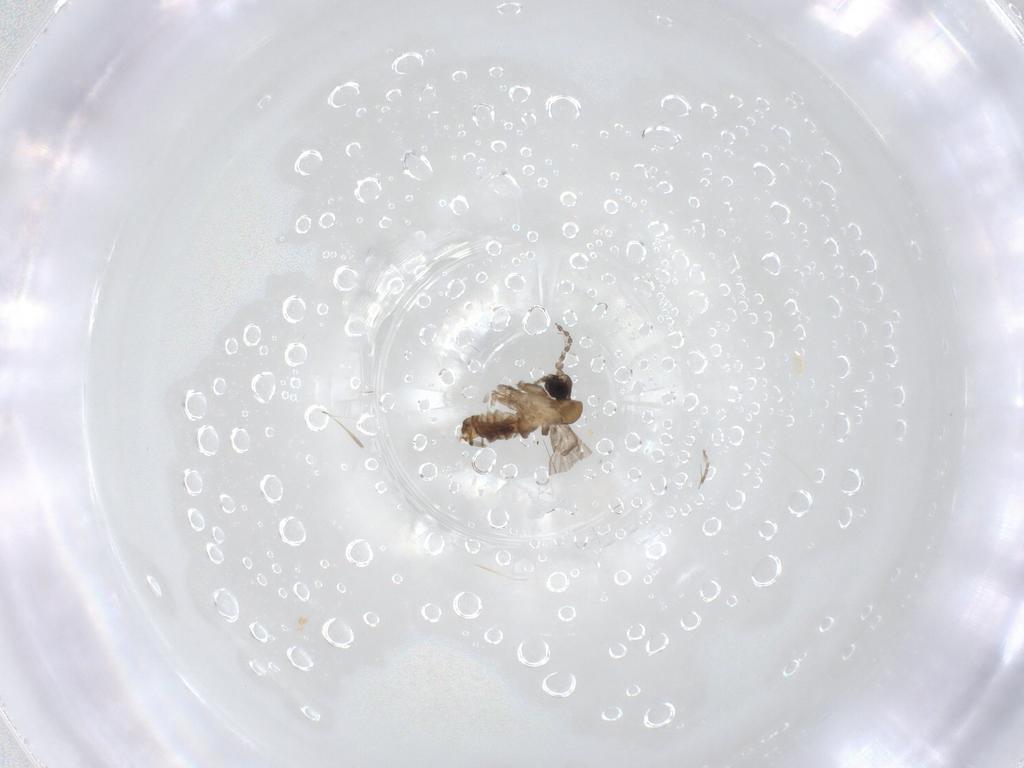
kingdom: Animalia
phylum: Arthropoda
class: Insecta
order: Diptera
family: Psychodidae
